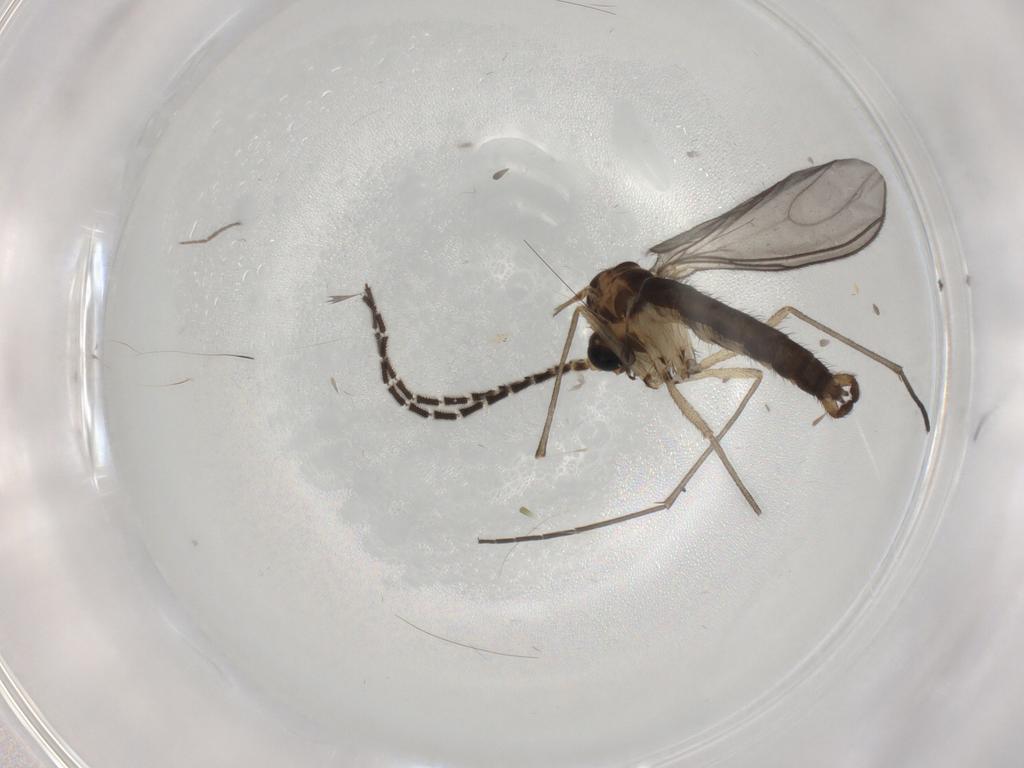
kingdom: Animalia
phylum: Arthropoda
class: Insecta
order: Diptera
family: Sciaridae
